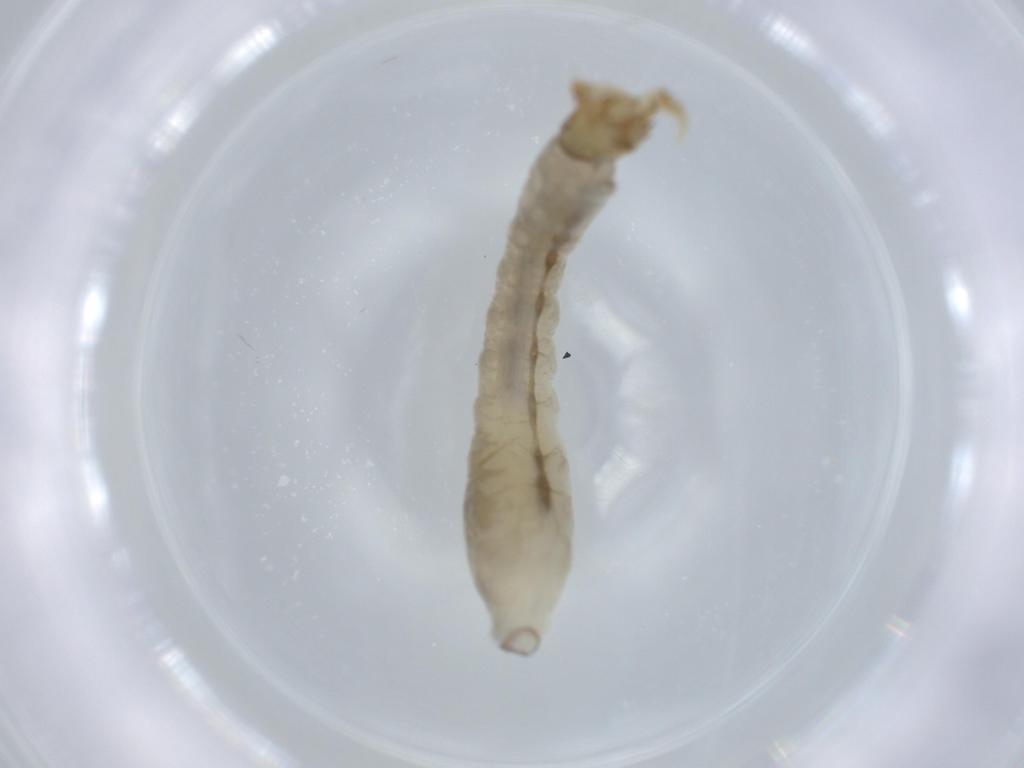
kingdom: Animalia
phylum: Arthropoda
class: Insecta
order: Diptera
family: Simuliidae
